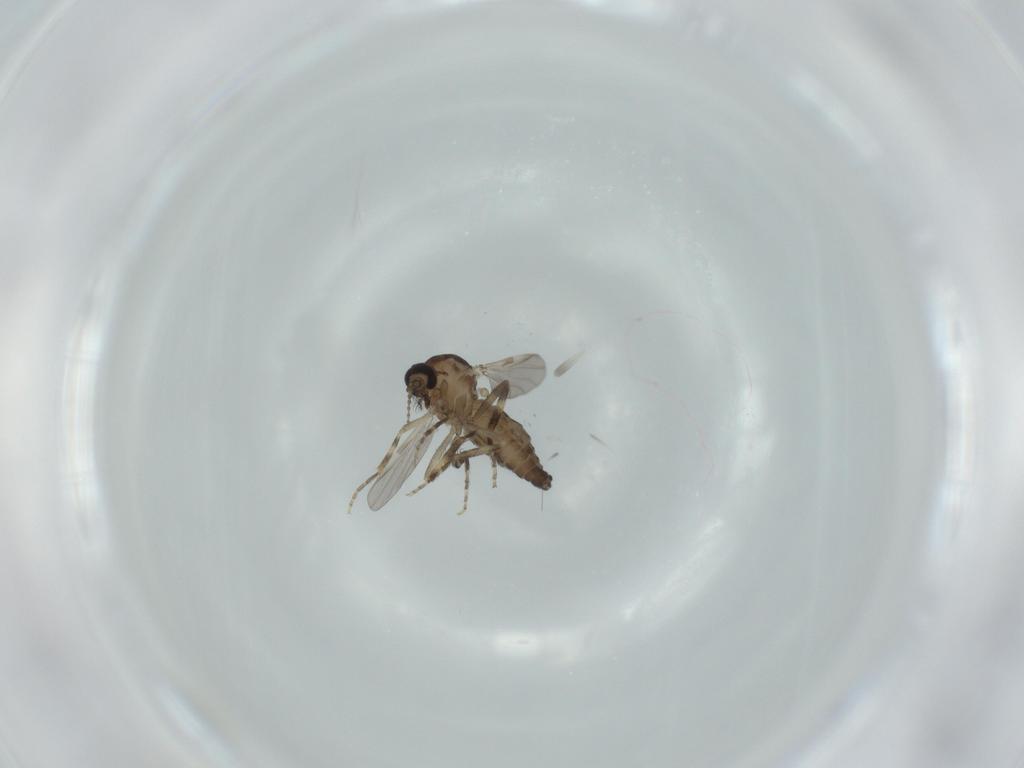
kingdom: Animalia
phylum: Arthropoda
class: Insecta
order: Diptera
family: Ceratopogonidae
